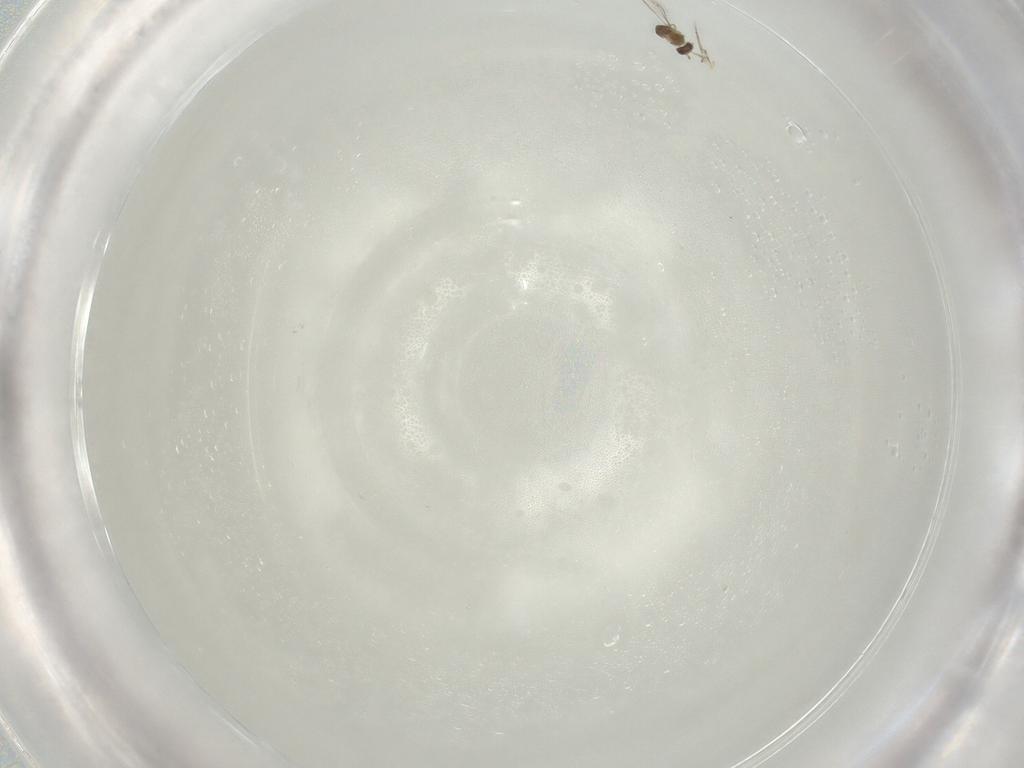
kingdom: Animalia
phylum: Arthropoda
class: Insecta
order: Hymenoptera
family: Mymaridae
